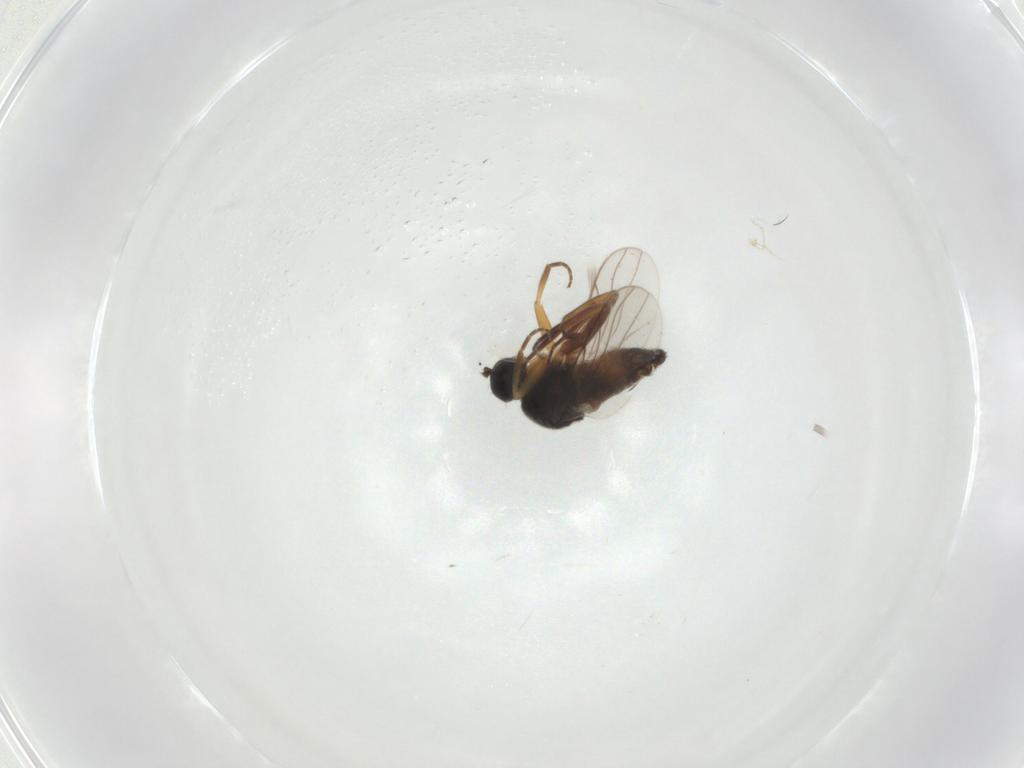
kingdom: Animalia
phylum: Arthropoda
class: Insecta
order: Diptera
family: Hybotidae
